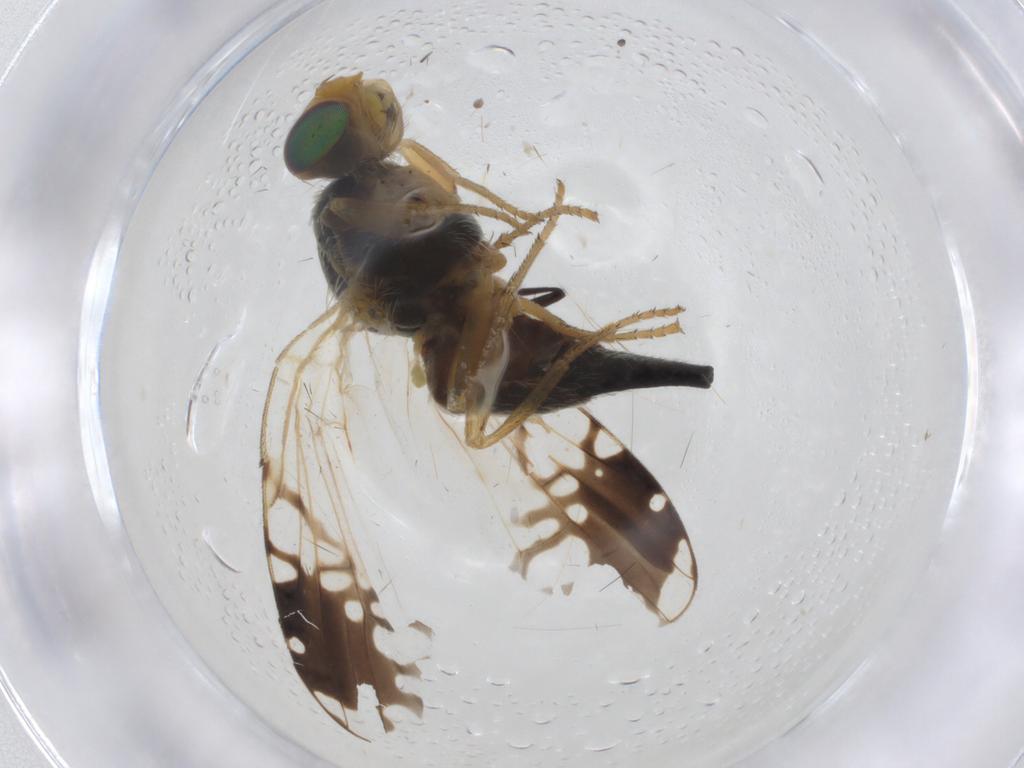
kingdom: Animalia
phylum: Arthropoda
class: Insecta
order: Diptera
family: Tephritidae
